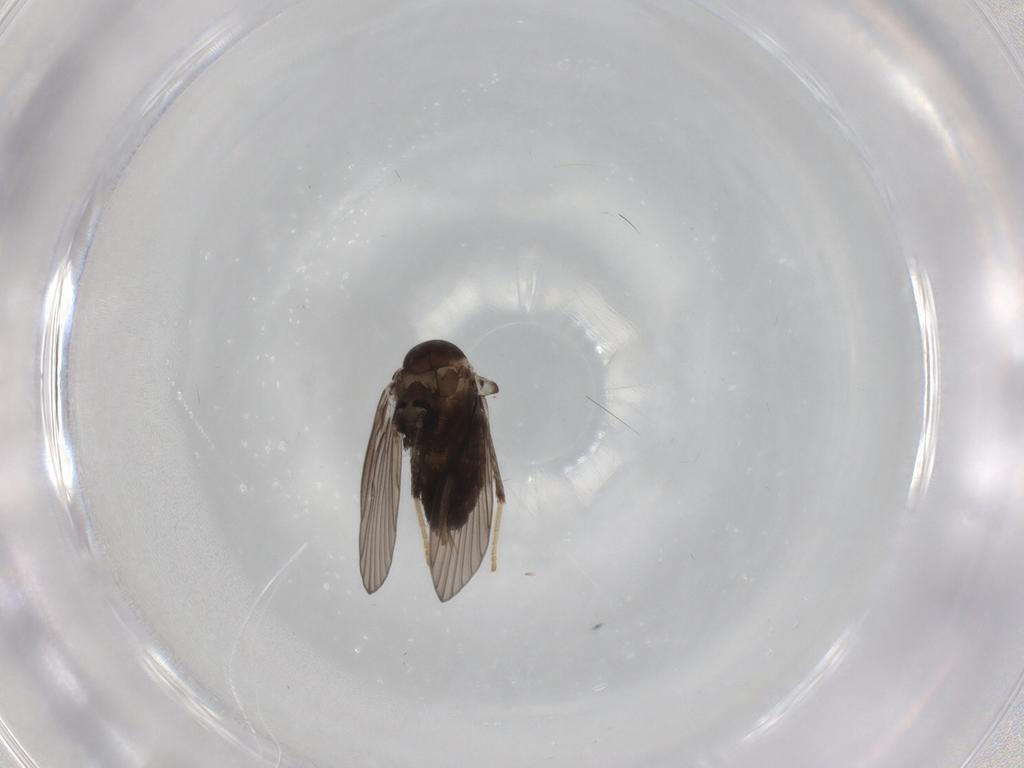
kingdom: Animalia
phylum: Arthropoda
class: Insecta
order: Diptera
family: Psychodidae
